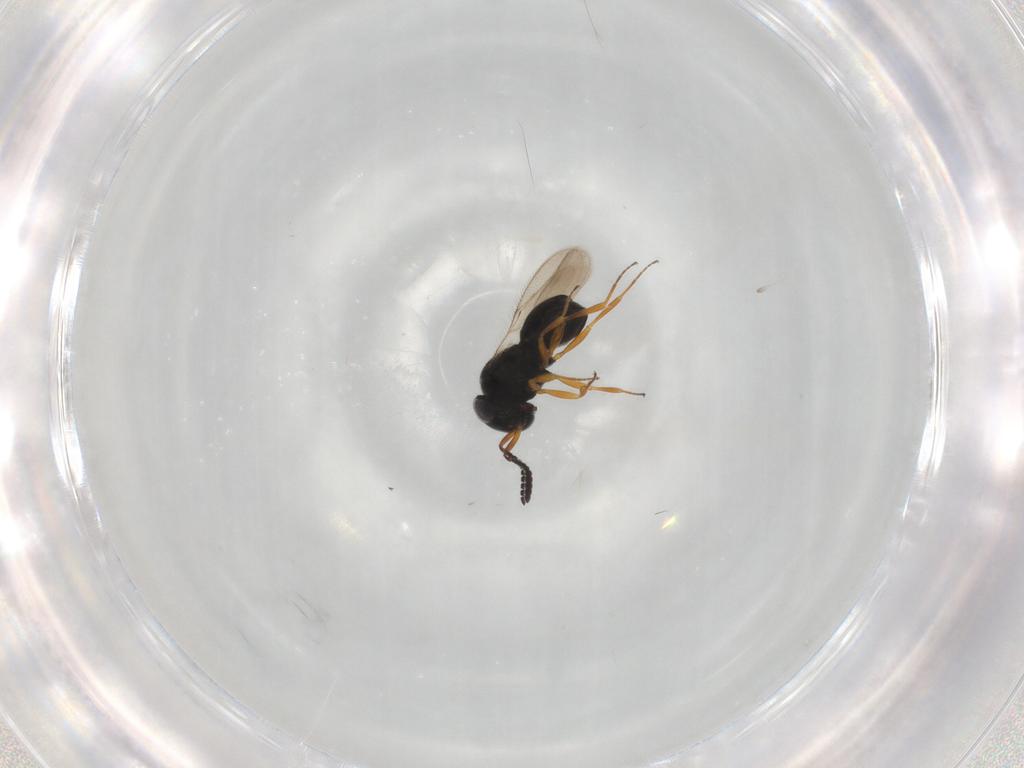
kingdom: Animalia
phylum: Arthropoda
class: Insecta
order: Hymenoptera
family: Scelionidae
